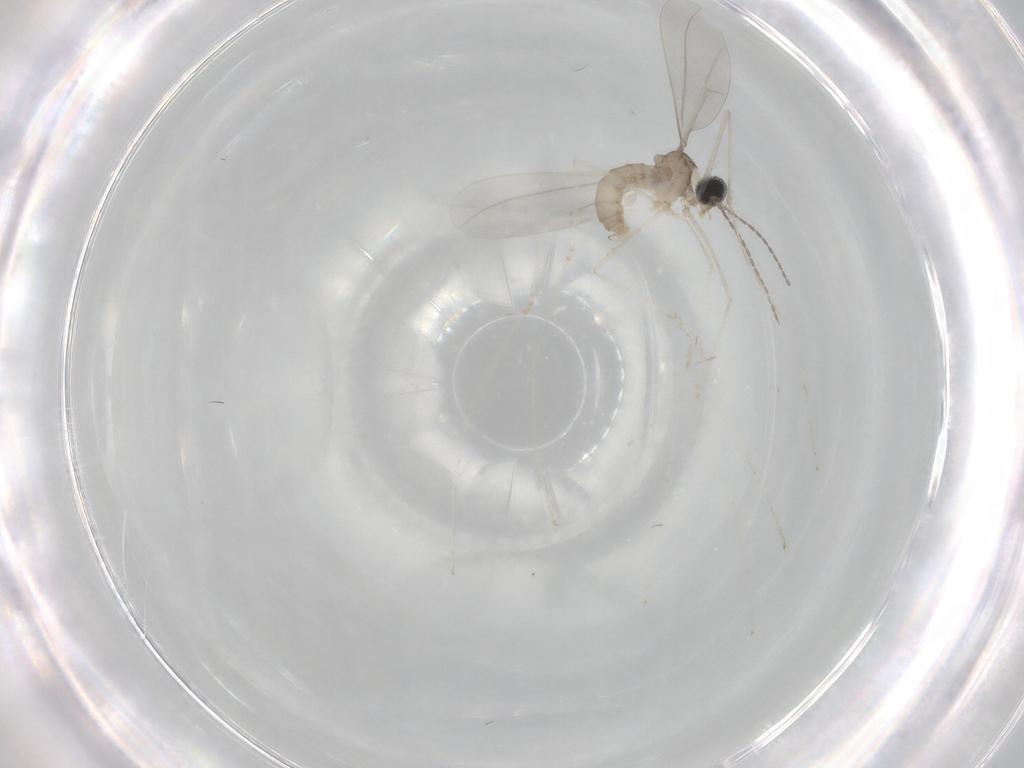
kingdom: Animalia
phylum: Arthropoda
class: Insecta
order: Diptera
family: Cecidomyiidae
